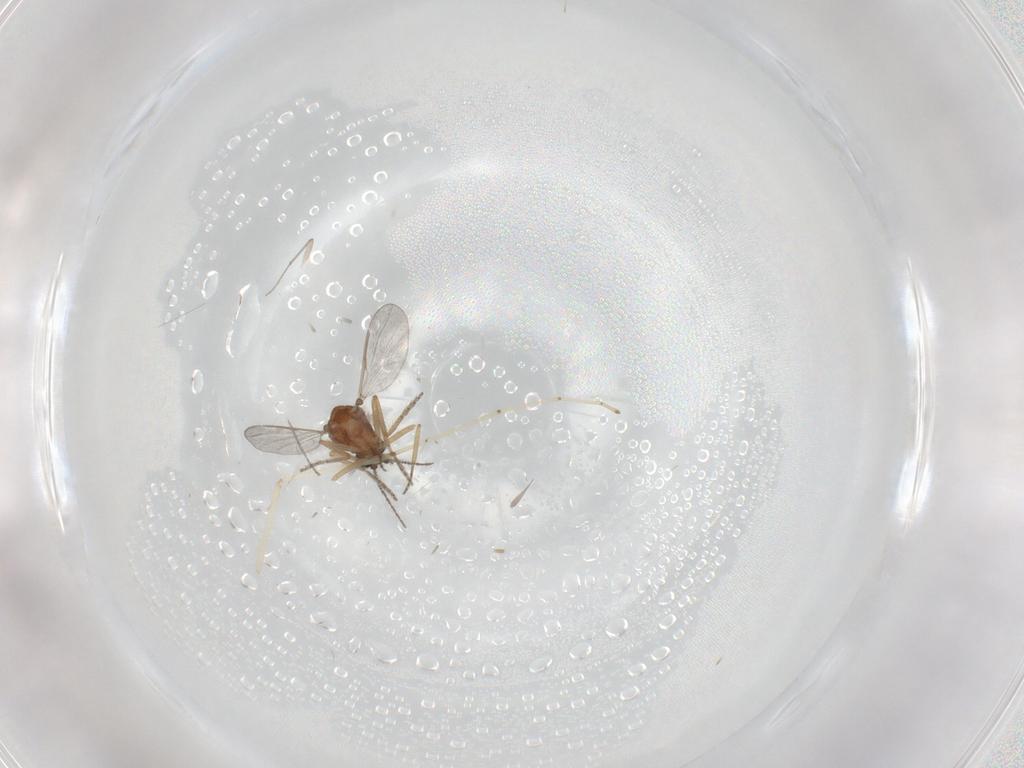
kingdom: Animalia
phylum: Arthropoda
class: Insecta
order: Diptera
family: Ceratopogonidae
